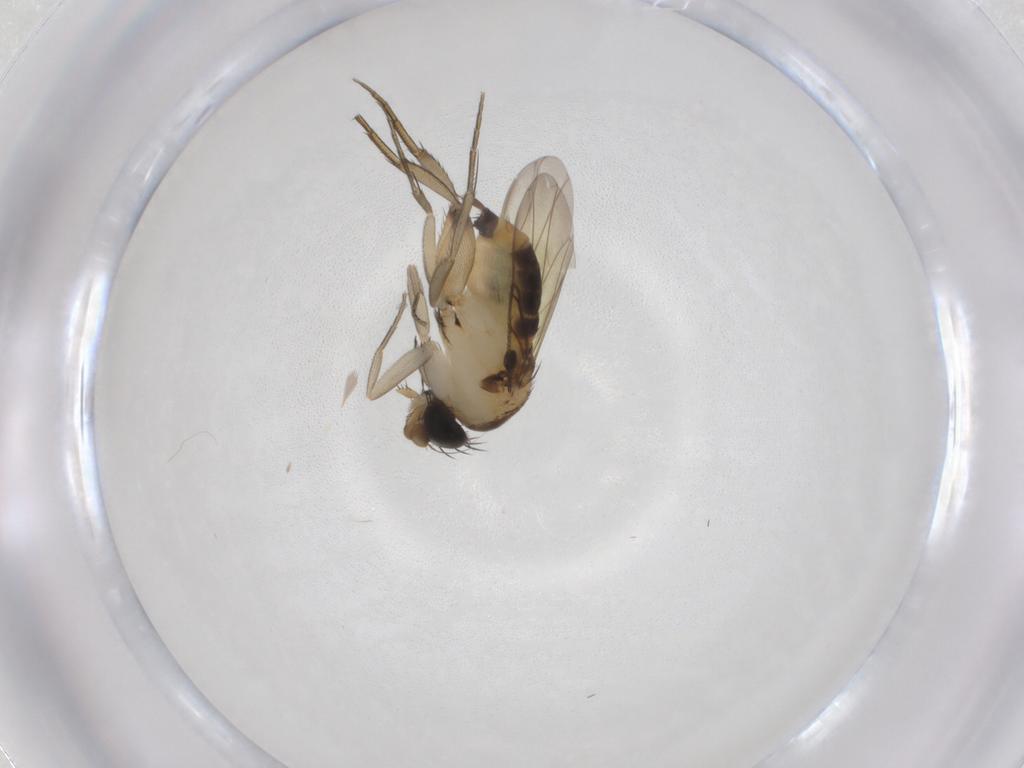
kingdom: Animalia
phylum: Arthropoda
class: Insecta
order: Diptera
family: Phoridae
